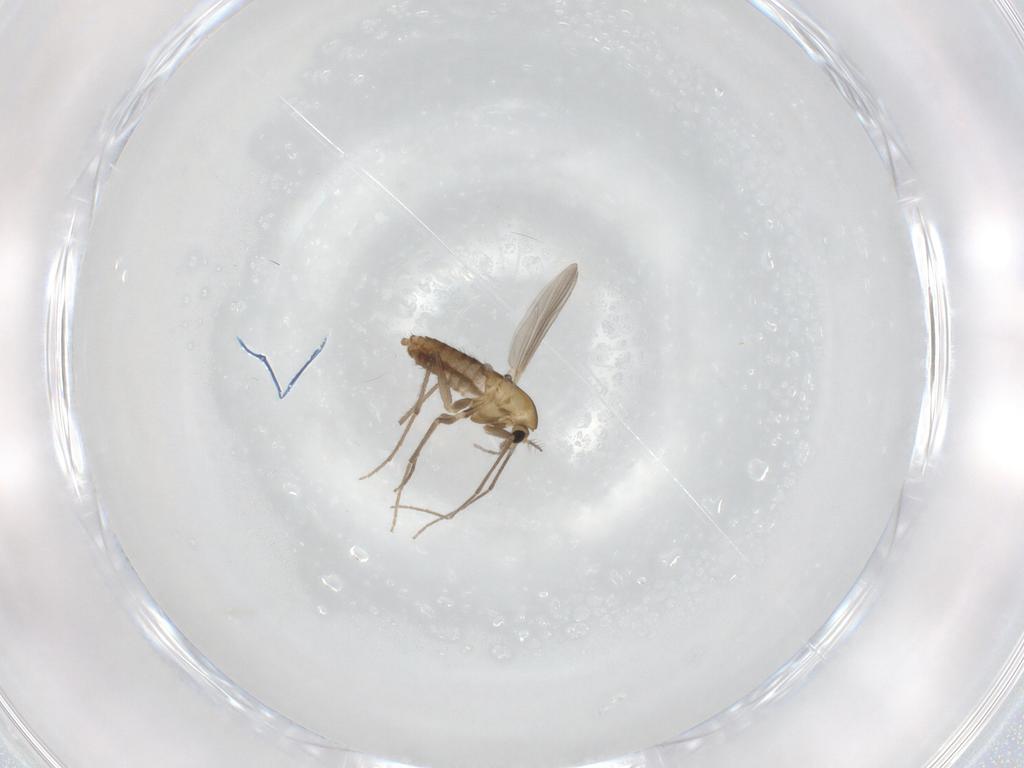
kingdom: Animalia
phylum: Arthropoda
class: Insecta
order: Diptera
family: Chironomidae
